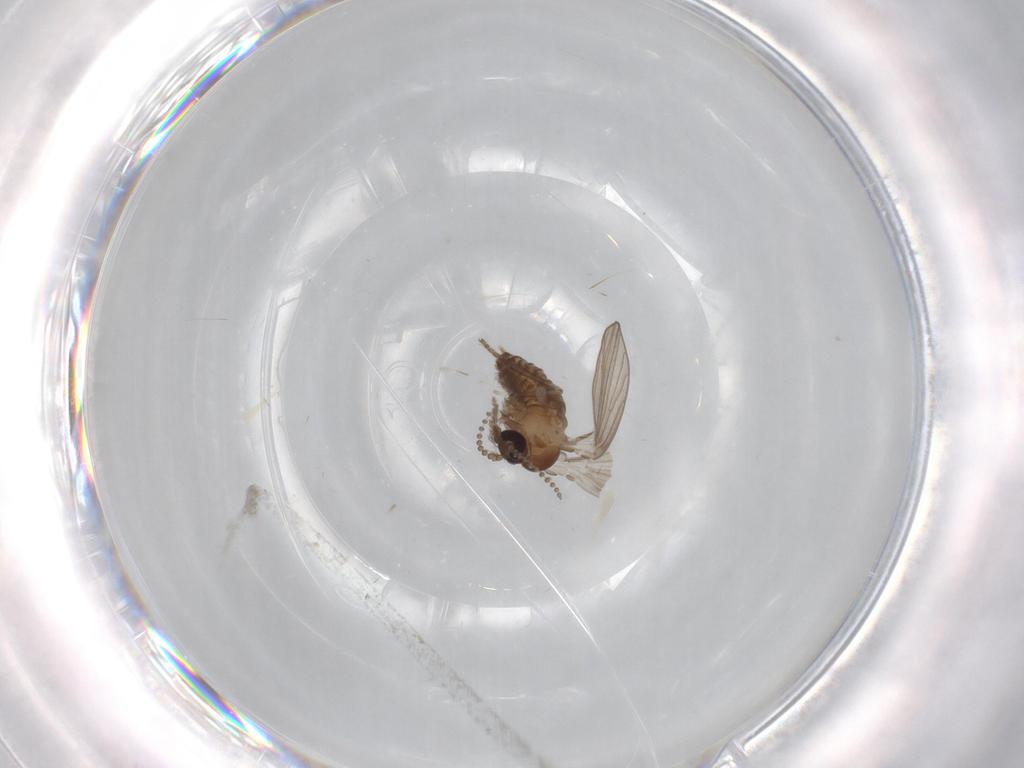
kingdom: Animalia
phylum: Arthropoda
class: Insecta
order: Diptera
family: Psychodidae
